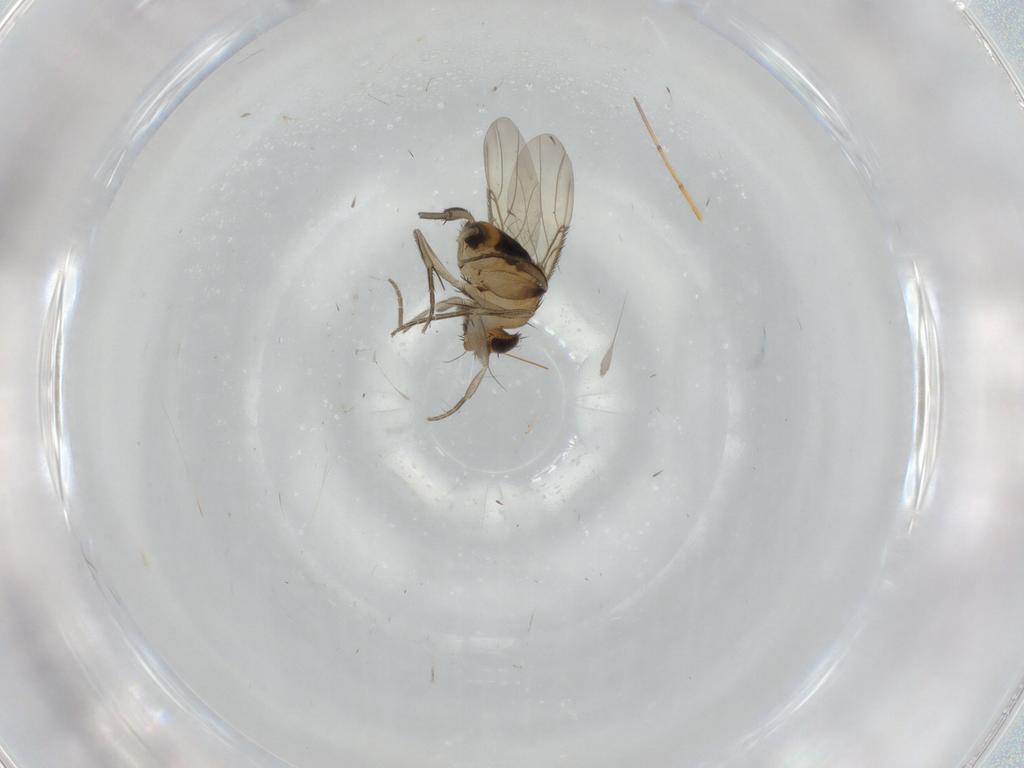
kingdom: Animalia
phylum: Arthropoda
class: Insecta
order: Diptera
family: Phoridae
